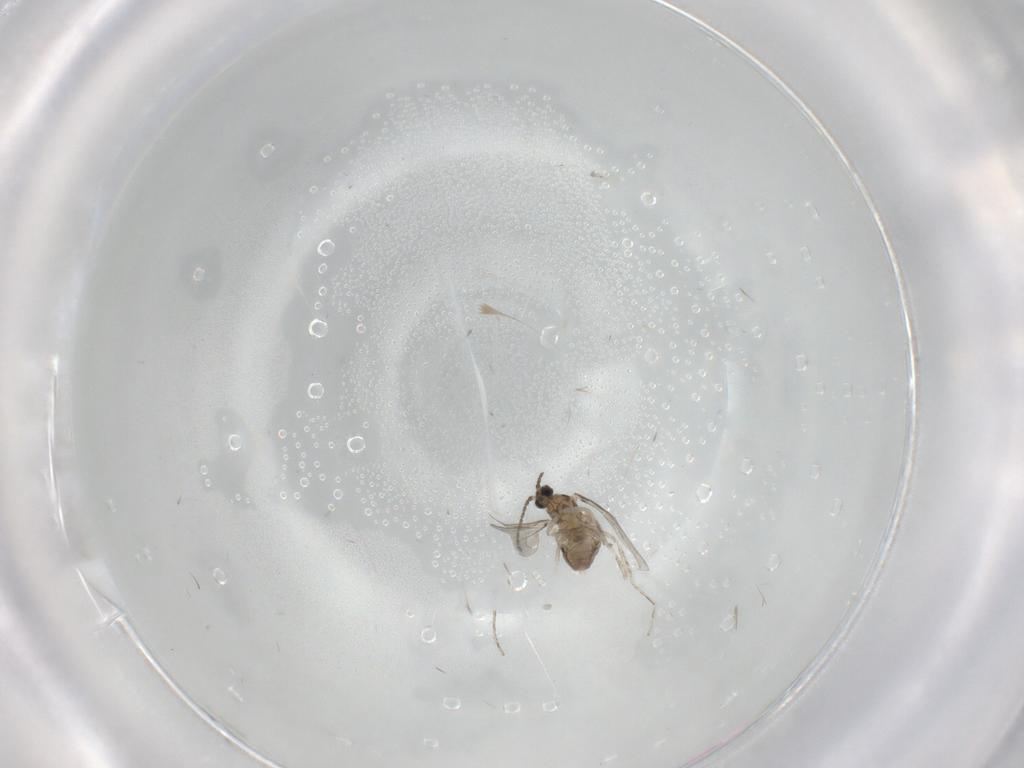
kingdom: Animalia
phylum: Arthropoda
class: Insecta
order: Diptera
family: Cecidomyiidae
